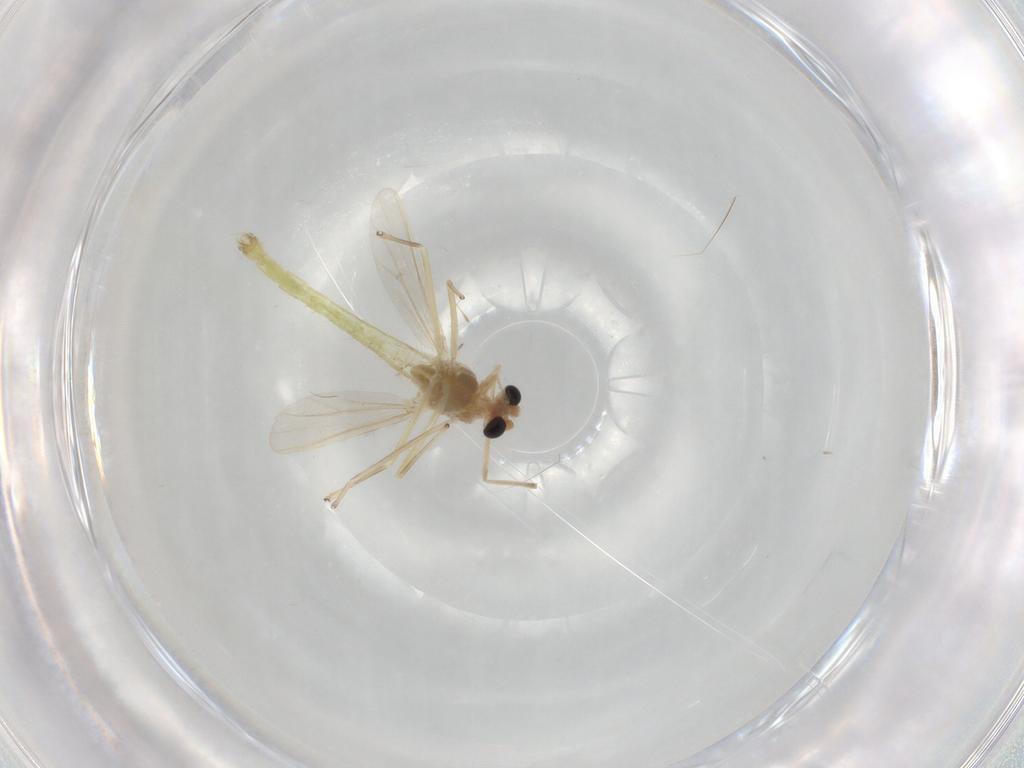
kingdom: Animalia
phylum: Arthropoda
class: Insecta
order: Diptera
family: Chironomidae
